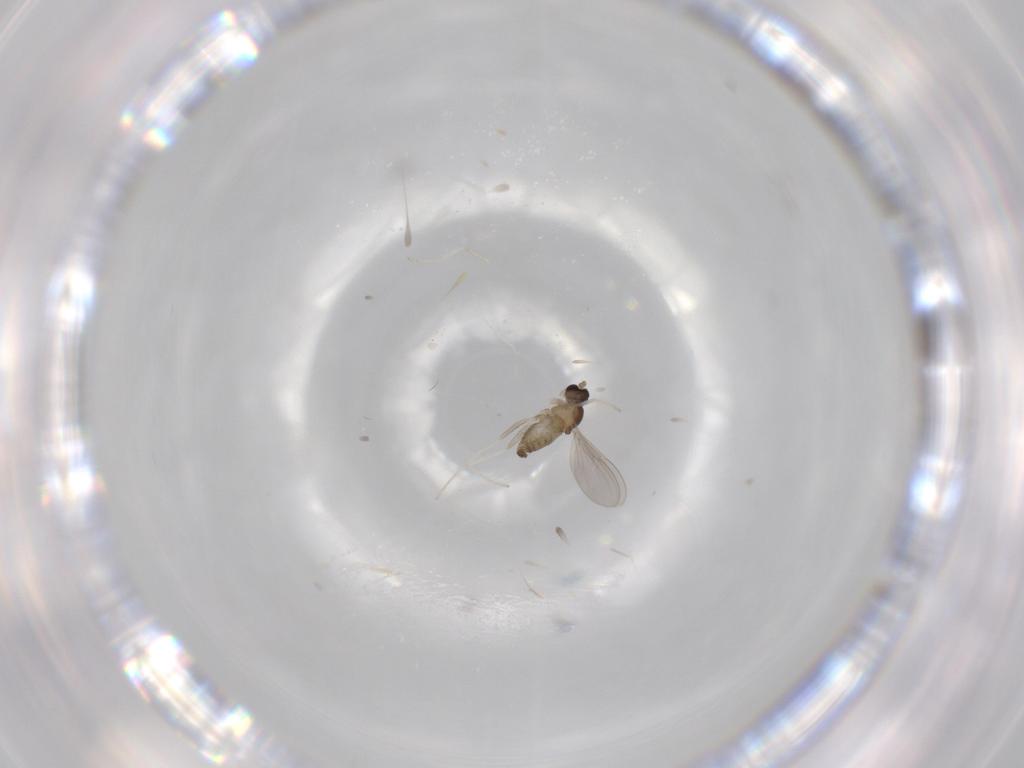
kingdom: Animalia
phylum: Arthropoda
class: Insecta
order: Diptera
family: Cecidomyiidae
